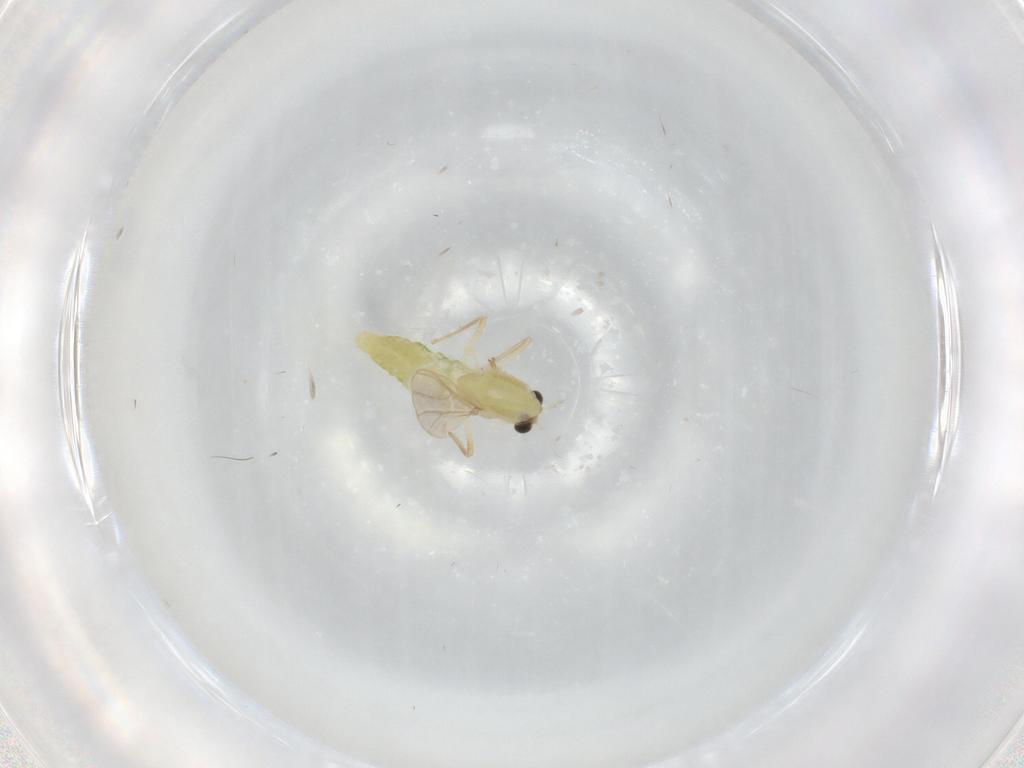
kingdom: Animalia
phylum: Arthropoda
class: Insecta
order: Diptera
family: Chironomidae
